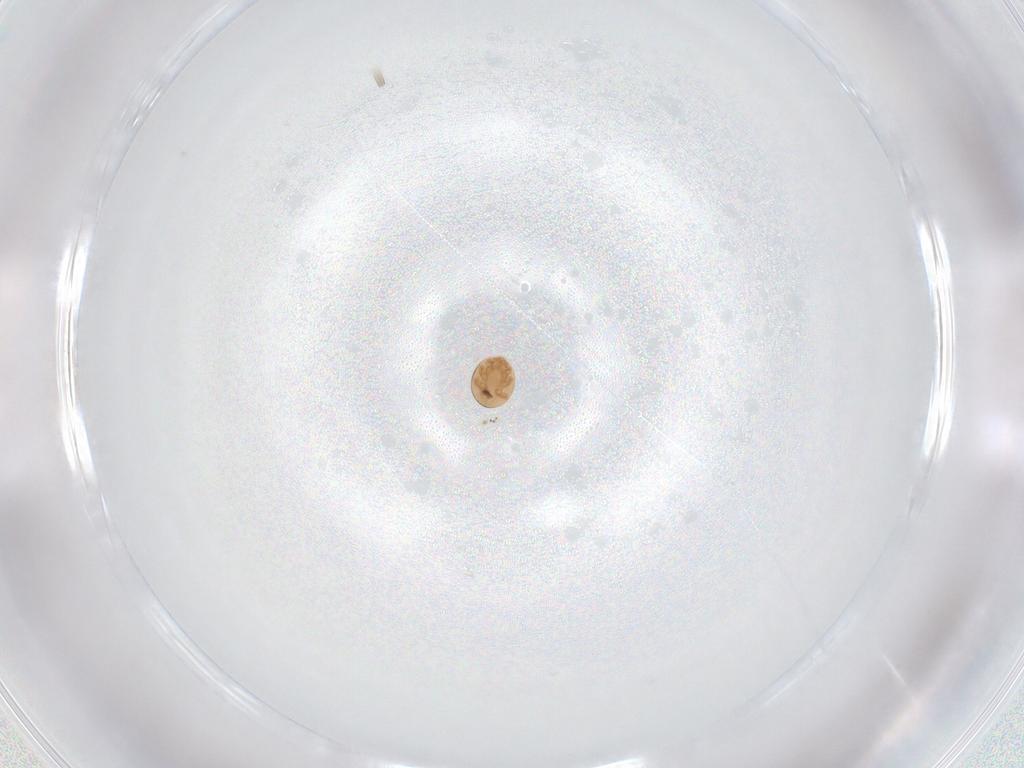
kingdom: Animalia
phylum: Arthropoda
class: Arachnida
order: Mesostigmata
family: Trematuridae
